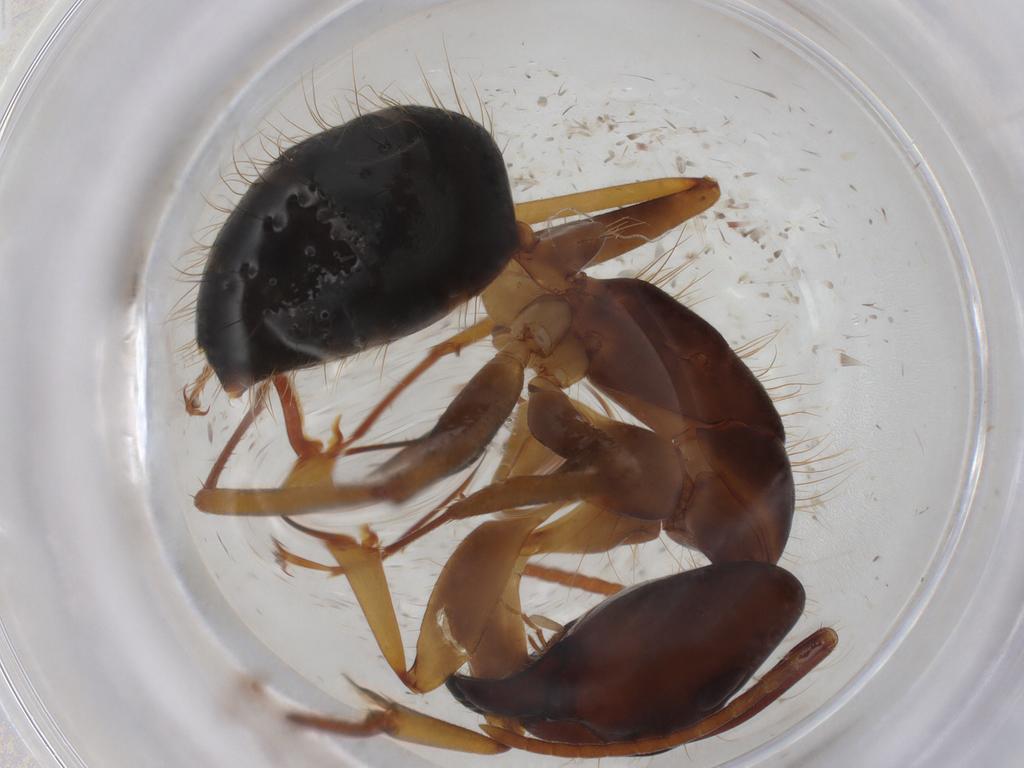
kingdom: Animalia
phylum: Arthropoda
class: Insecta
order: Hymenoptera
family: Formicidae
